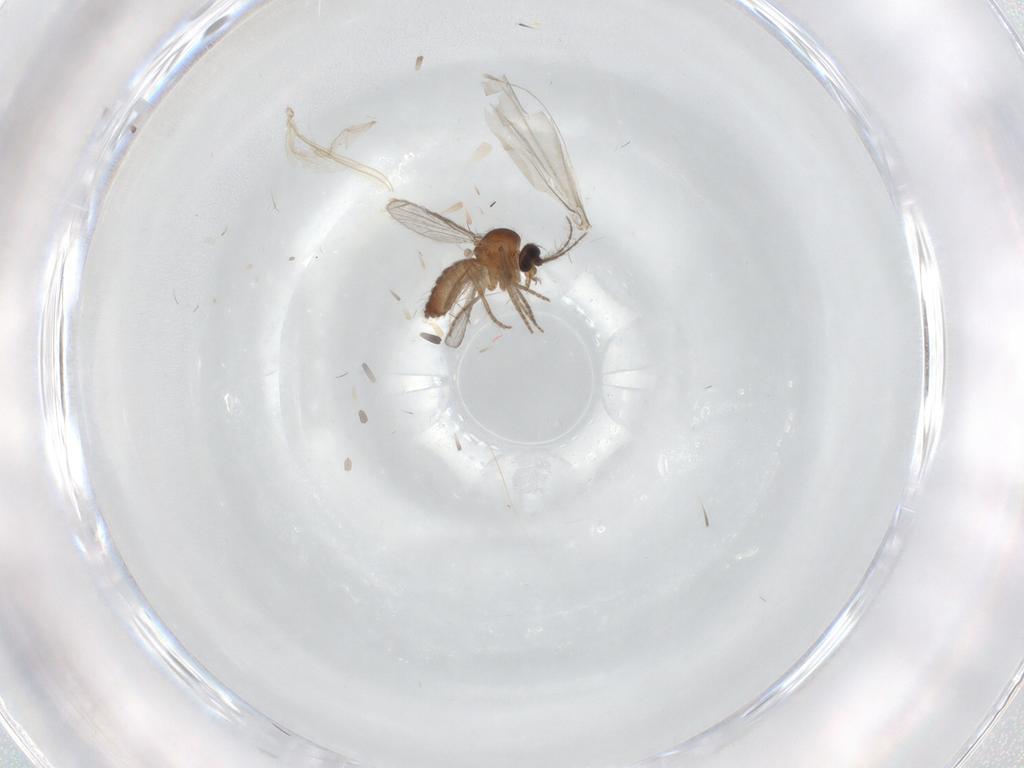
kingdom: Animalia
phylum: Arthropoda
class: Insecta
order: Diptera
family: Ceratopogonidae
